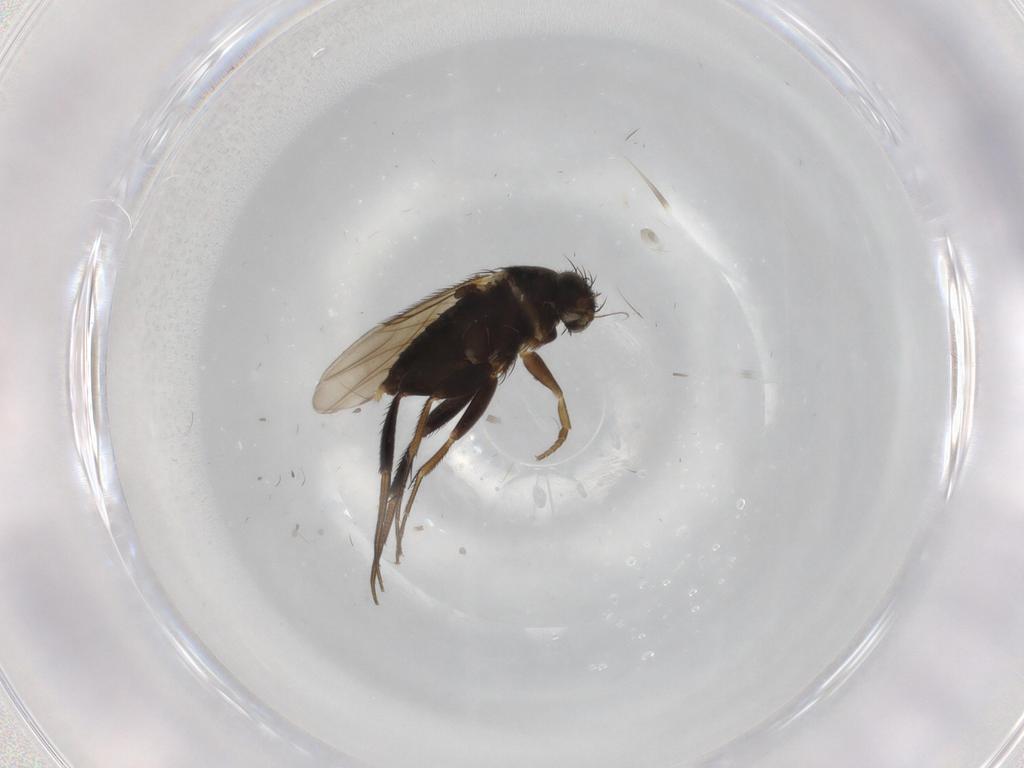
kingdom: Animalia
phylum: Arthropoda
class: Insecta
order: Diptera
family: Phoridae
